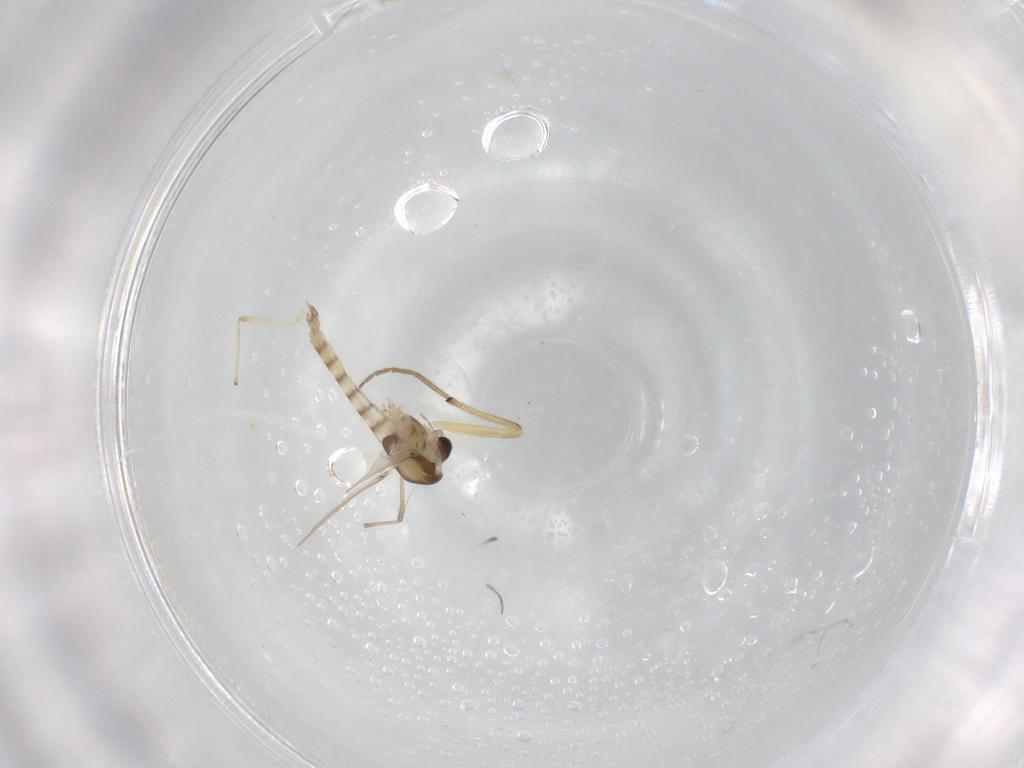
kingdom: Animalia
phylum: Arthropoda
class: Insecta
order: Diptera
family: Chironomidae
